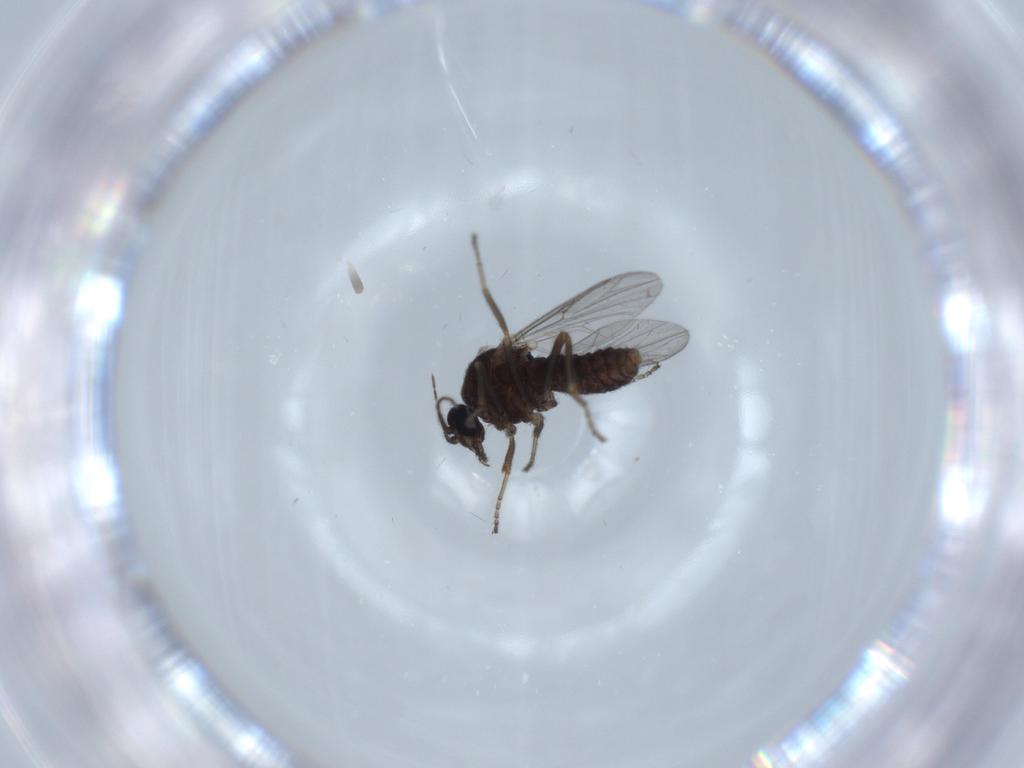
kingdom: Animalia
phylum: Arthropoda
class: Insecta
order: Diptera
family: Ceratopogonidae
